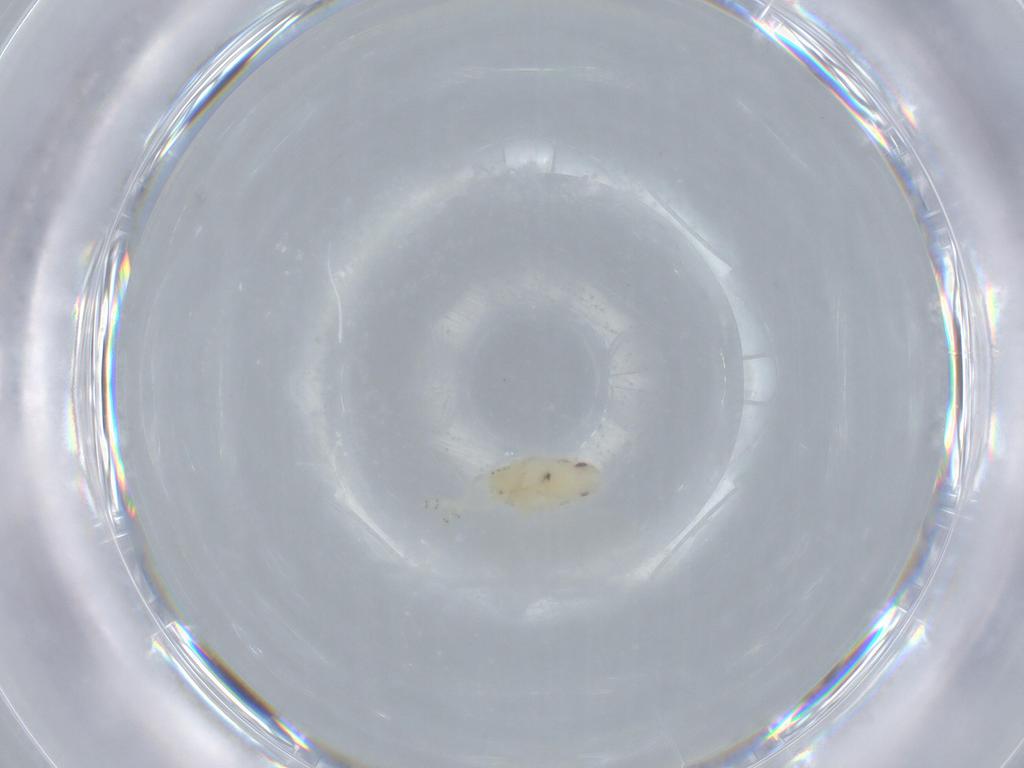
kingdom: Animalia
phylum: Arthropoda
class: Insecta
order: Hemiptera
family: Flatidae
